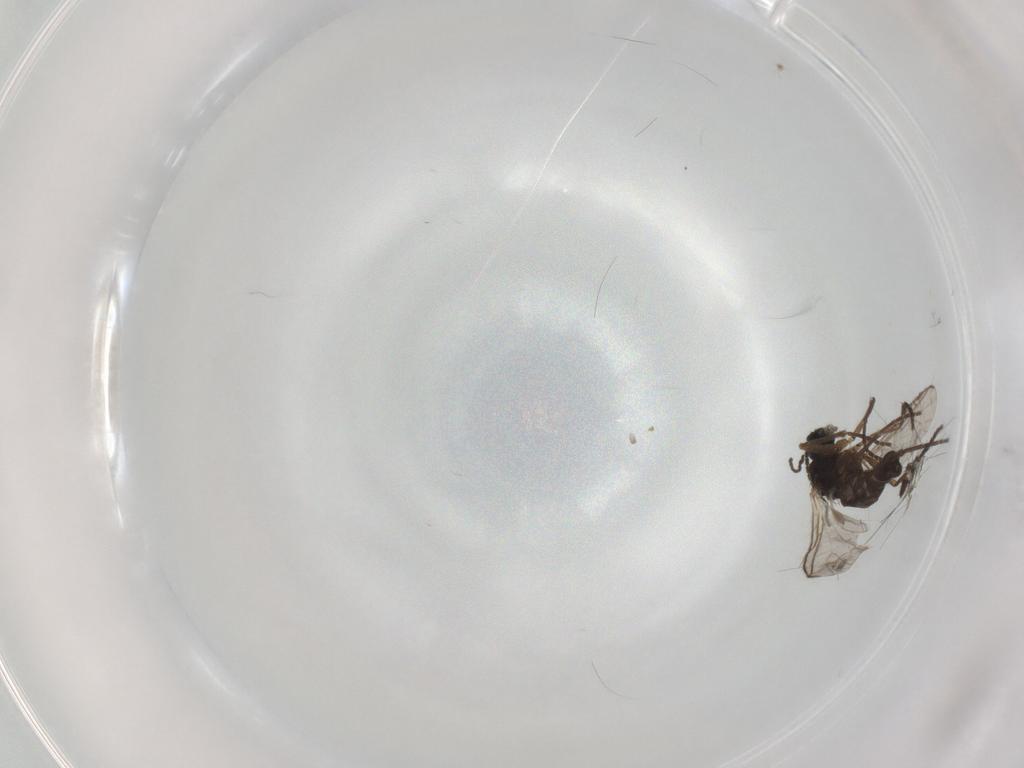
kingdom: Animalia
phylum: Arthropoda
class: Insecta
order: Diptera
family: Chironomidae
